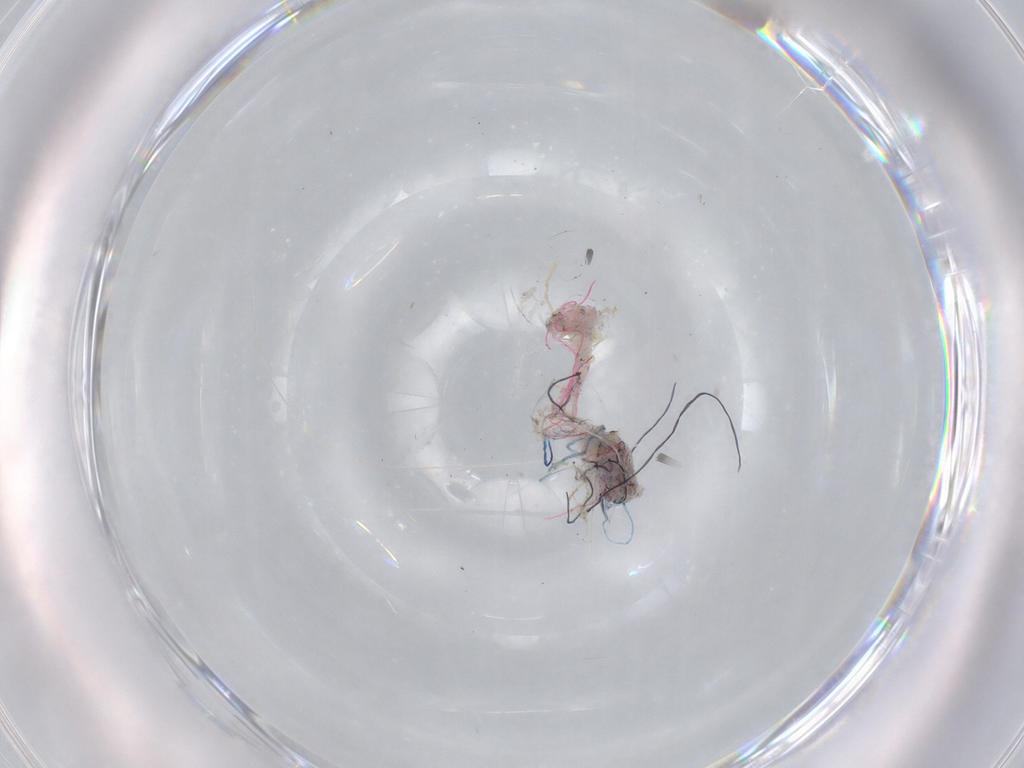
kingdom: Animalia
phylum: Arthropoda
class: Insecta
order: Diptera
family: Cecidomyiidae
